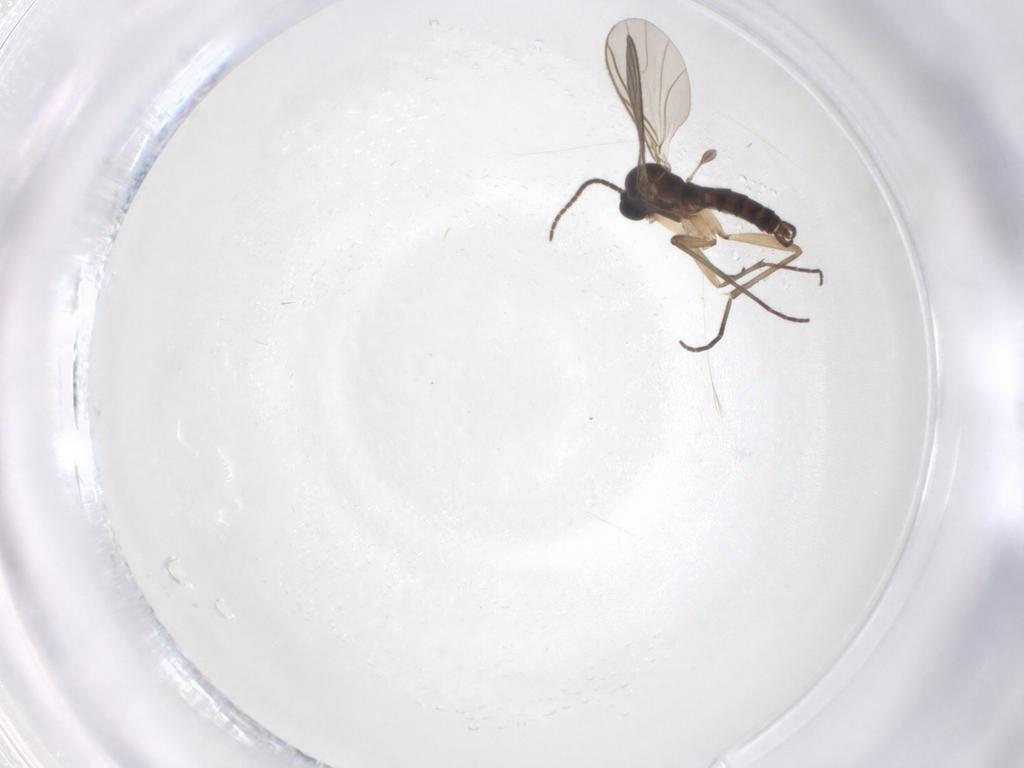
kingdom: Animalia
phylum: Arthropoda
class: Insecta
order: Diptera
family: Sciaridae
